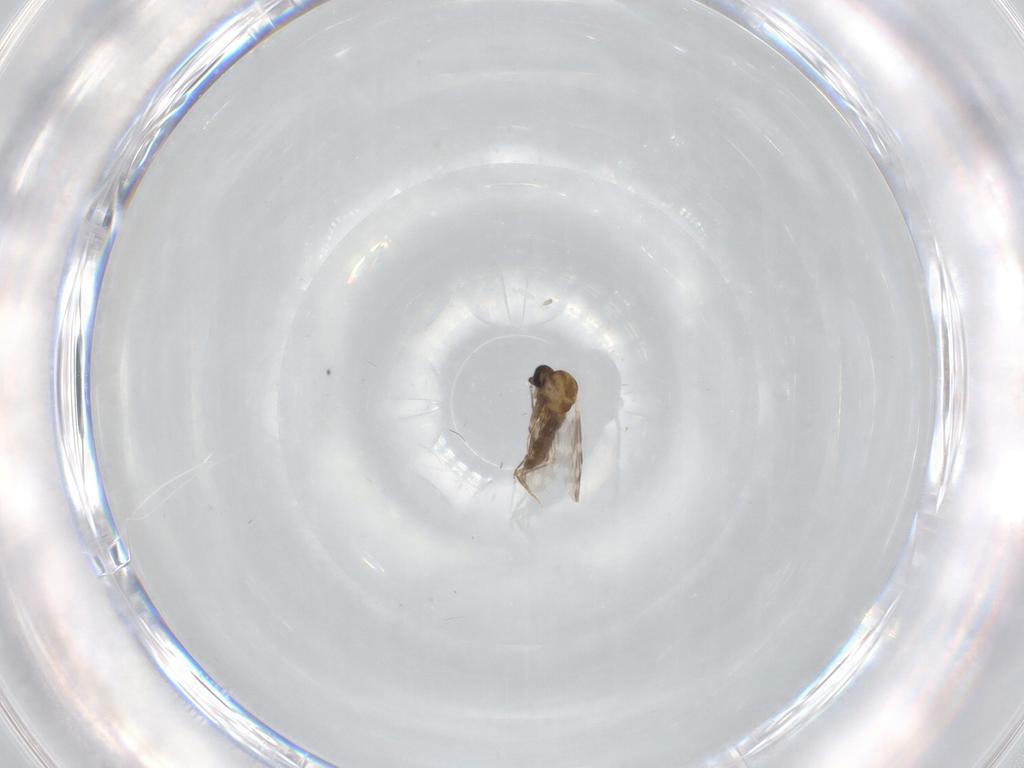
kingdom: Animalia
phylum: Arthropoda
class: Insecta
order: Diptera
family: Ceratopogonidae
